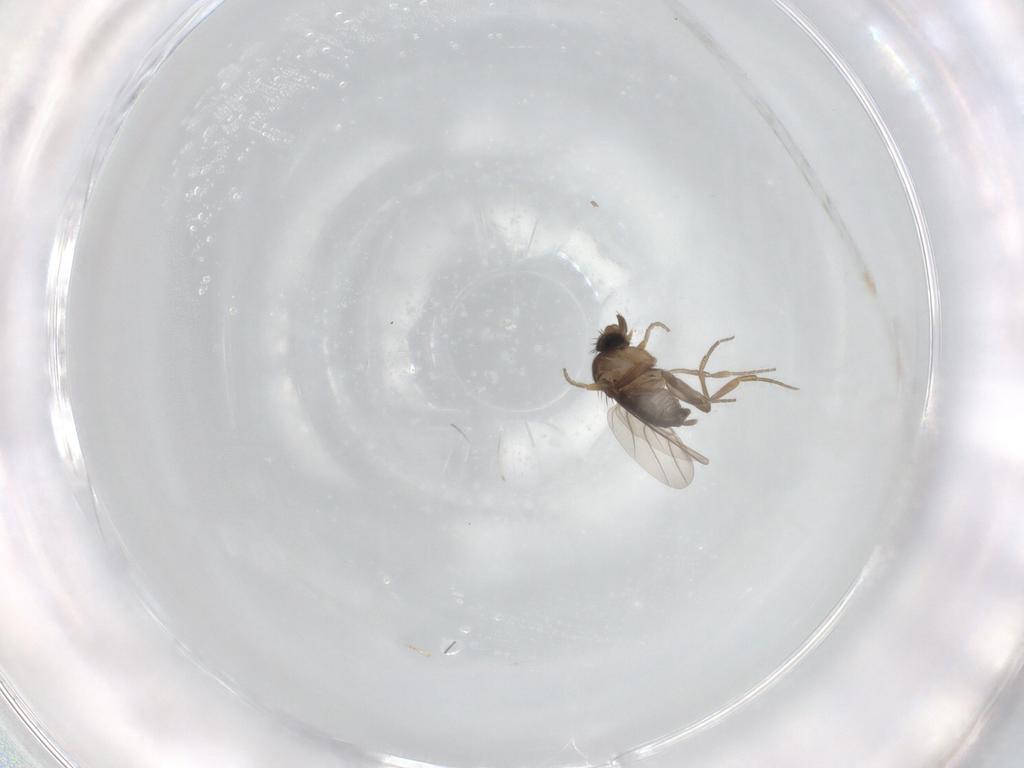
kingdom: Animalia
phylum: Arthropoda
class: Insecta
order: Diptera
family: Phoridae
